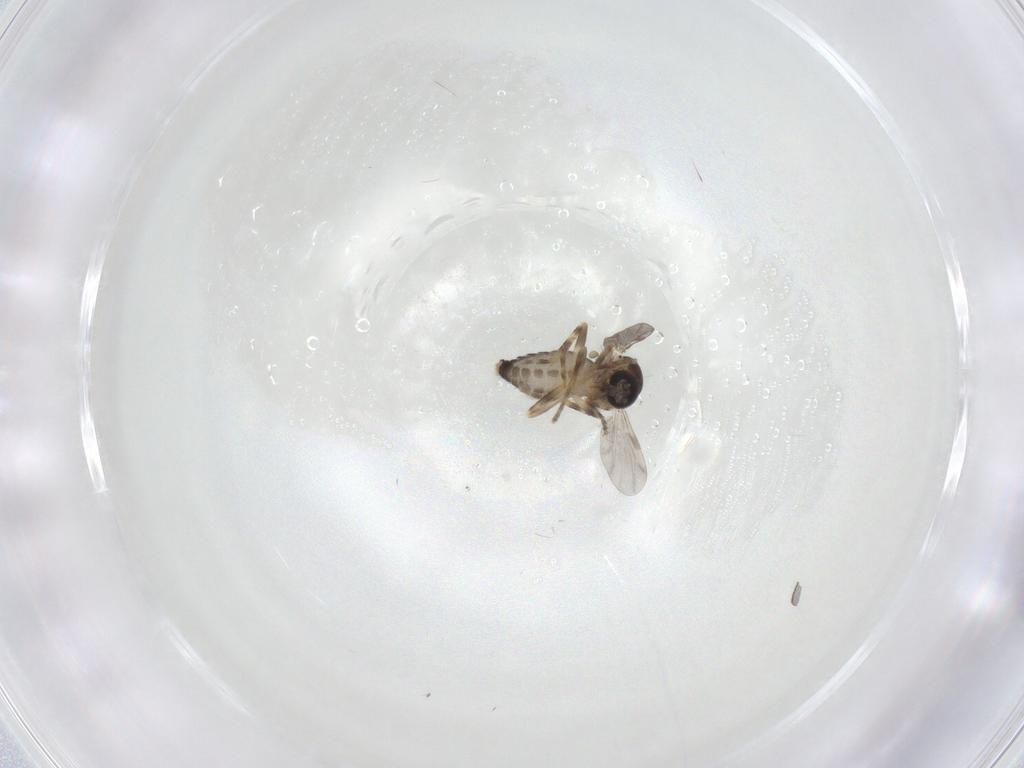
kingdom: Animalia
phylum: Arthropoda
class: Insecta
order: Diptera
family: Ceratopogonidae
